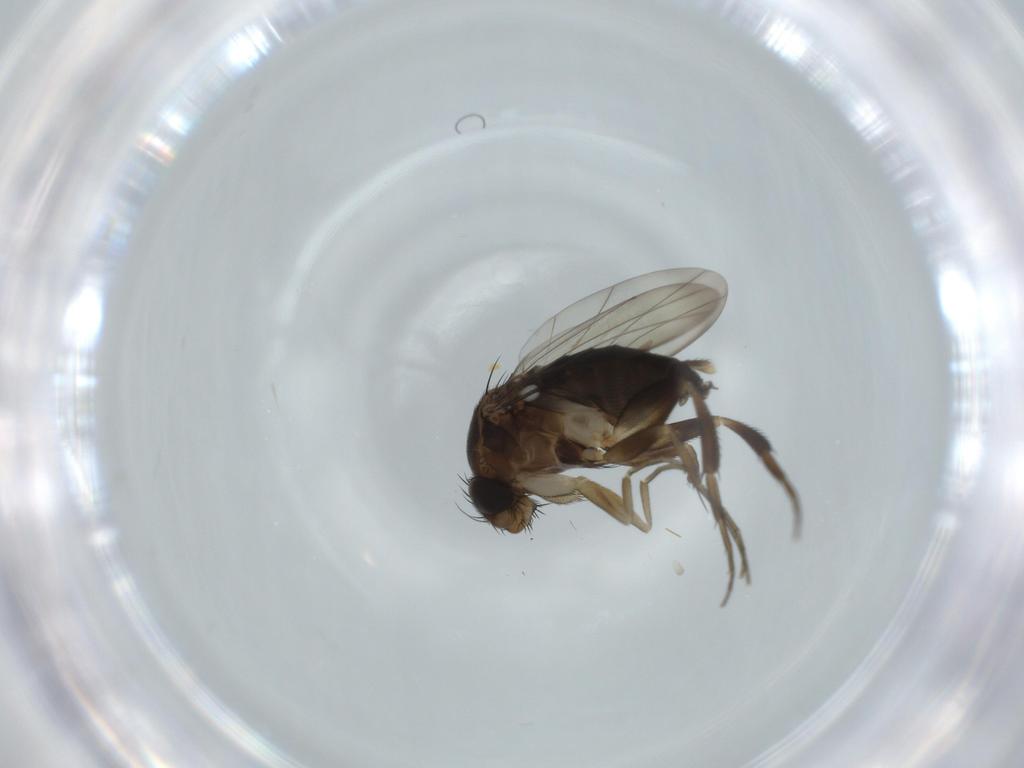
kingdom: Animalia
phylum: Arthropoda
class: Insecta
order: Diptera
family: Phoridae
